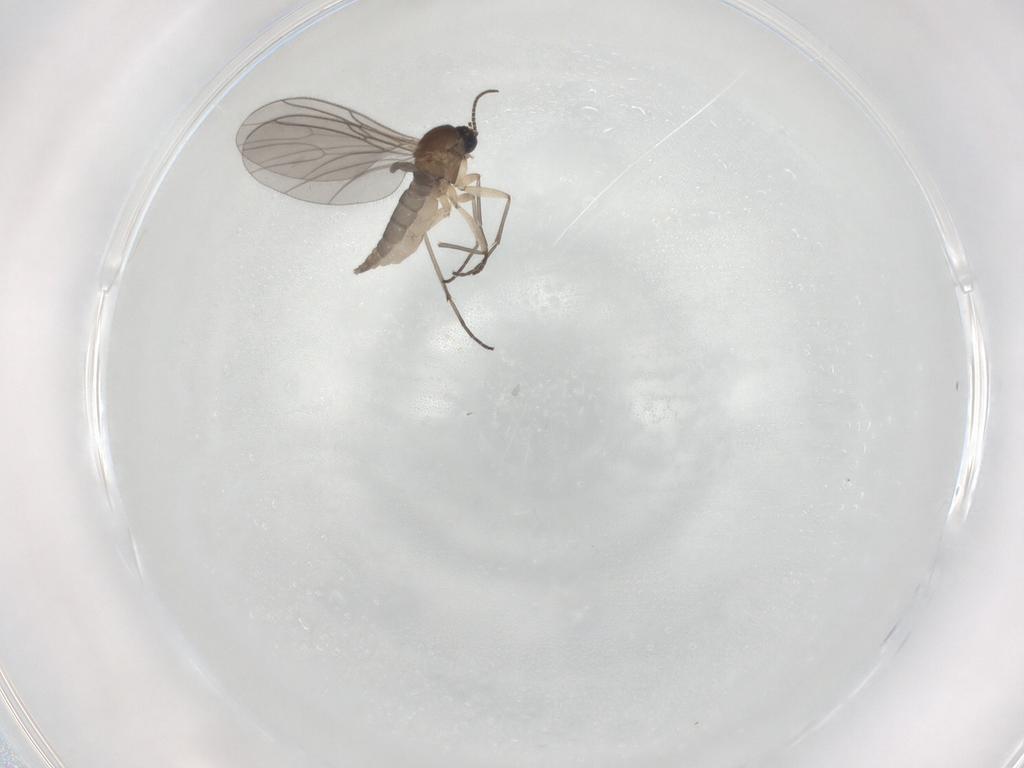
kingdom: Animalia
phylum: Arthropoda
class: Insecta
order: Diptera
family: Sciaridae
